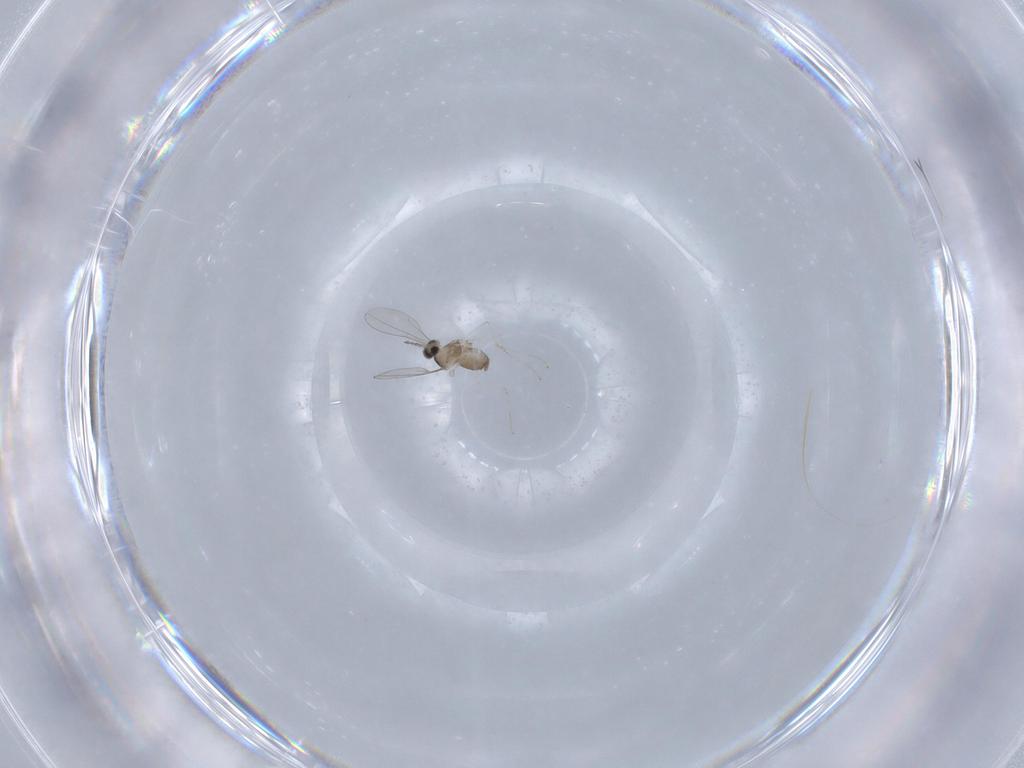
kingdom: Animalia
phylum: Arthropoda
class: Insecta
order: Diptera
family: Cecidomyiidae
